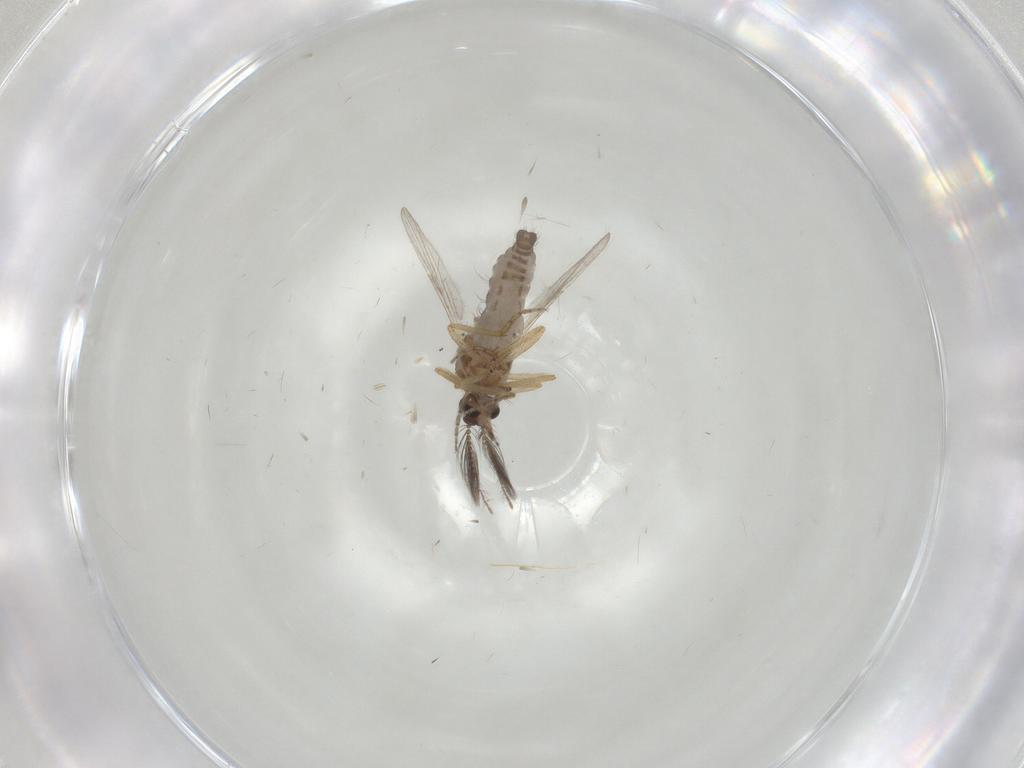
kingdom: Animalia
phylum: Arthropoda
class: Insecta
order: Diptera
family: Ceratopogonidae
